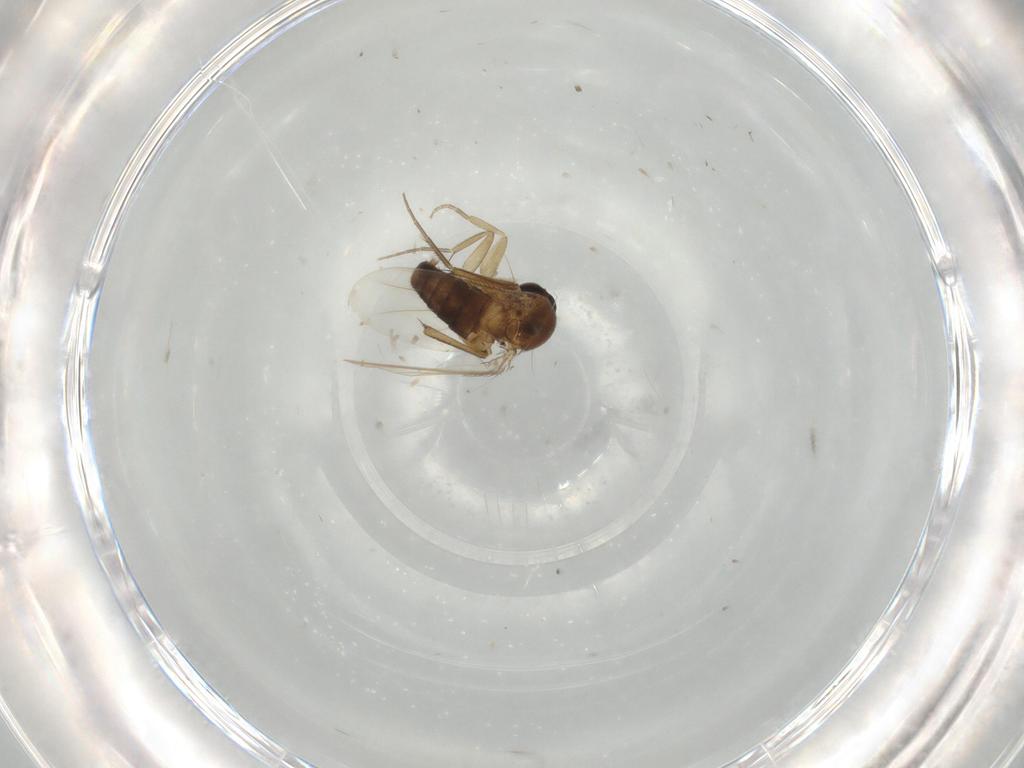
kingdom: Animalia
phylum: Arthropoda
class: Insecta
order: Diptera
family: Phoridae
